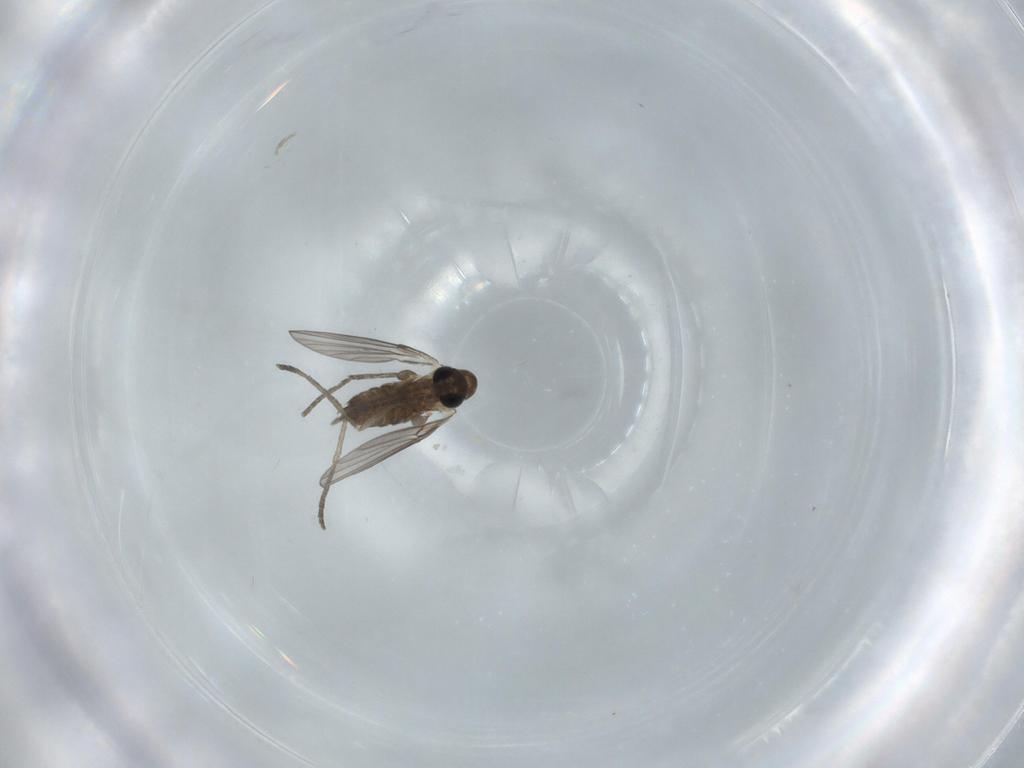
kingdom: Animalia
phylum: Arthropoda
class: Insecta
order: Diptera
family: Psychodidae
